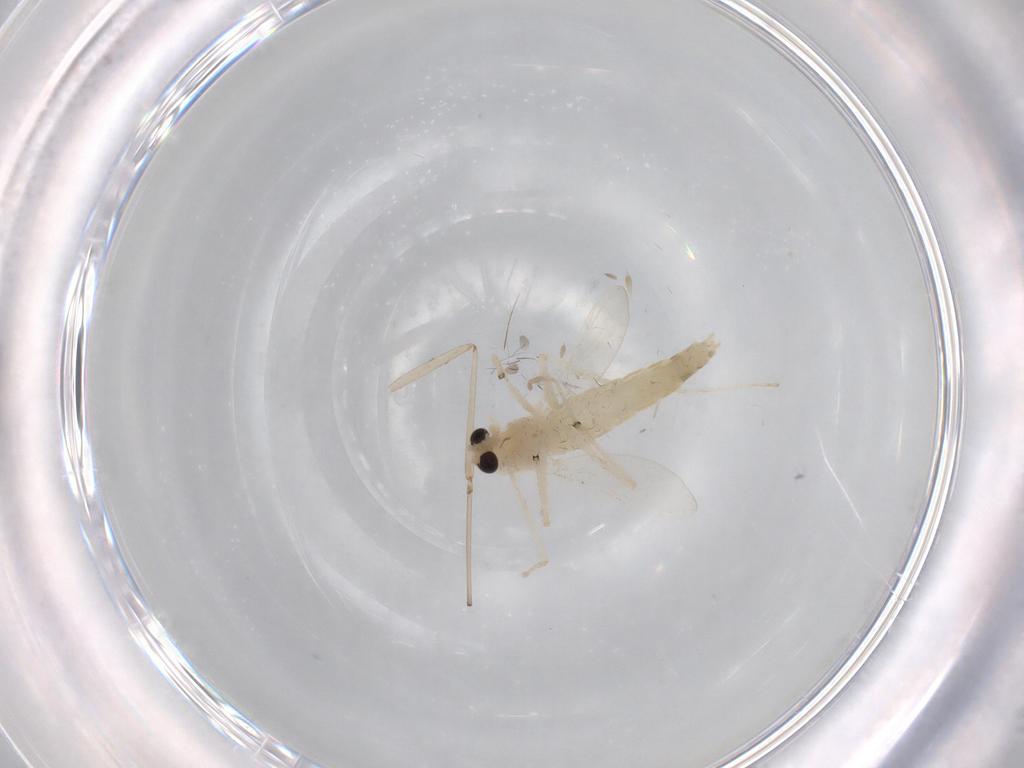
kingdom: Animalia
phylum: Arthropoda
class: Insecta
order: Diptera
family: Chironomidae
